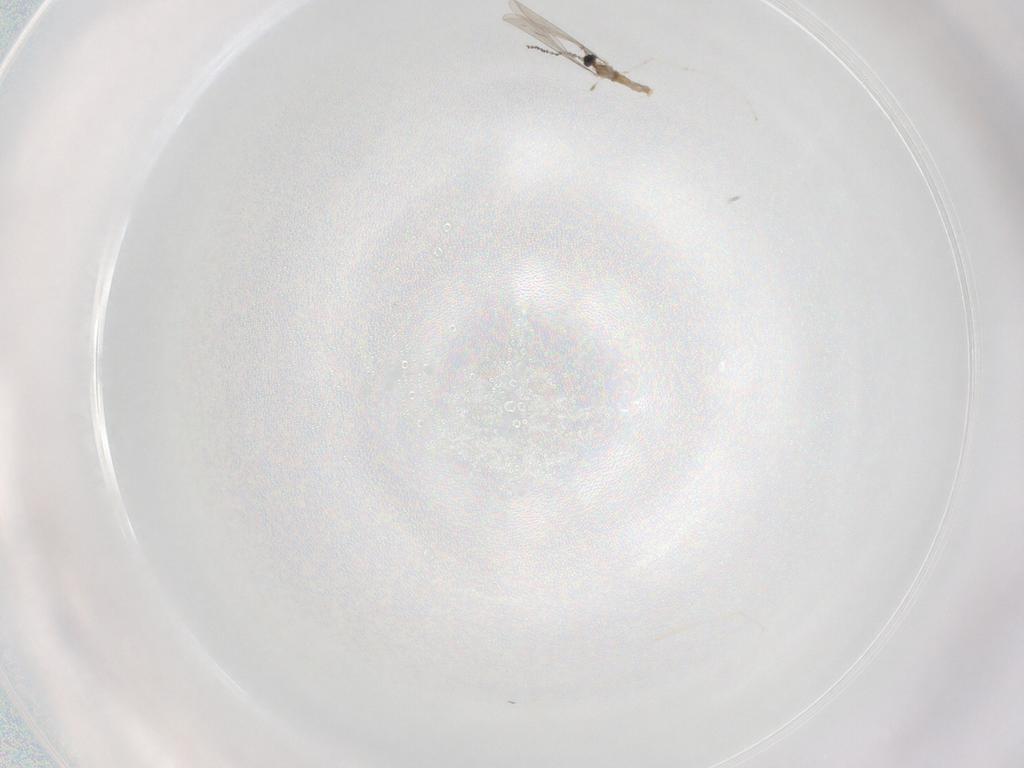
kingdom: Animalia
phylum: Arthropoda
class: Insecta
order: Diptera
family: Cecidomyiidae
